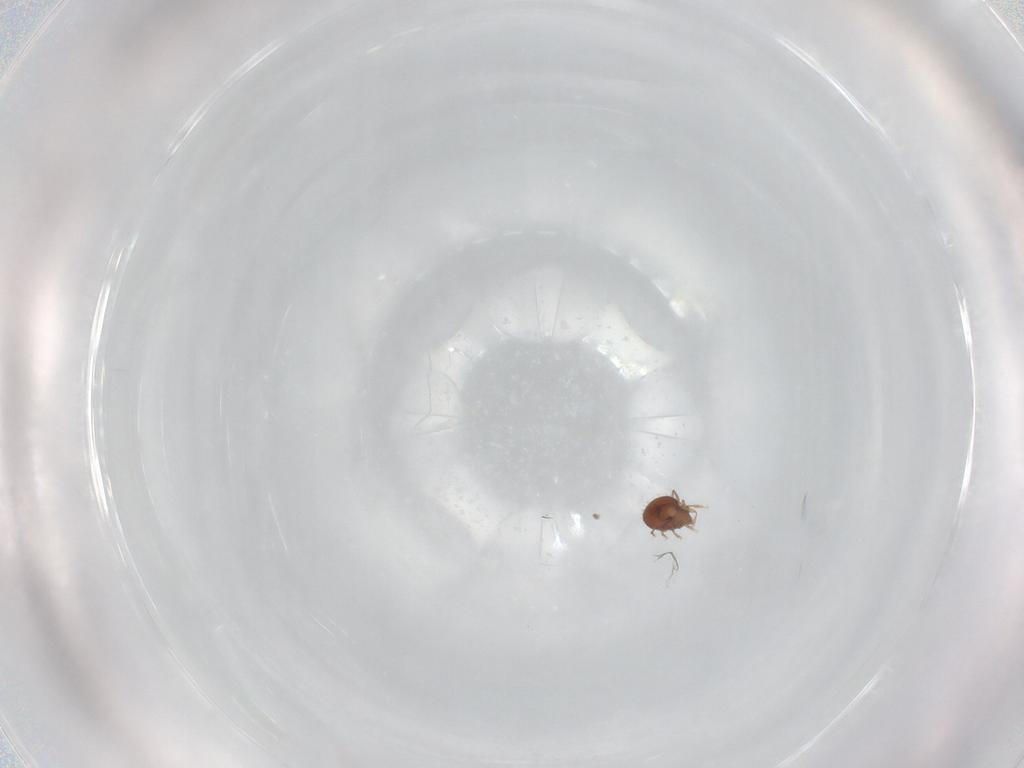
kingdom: Animalia
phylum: Arthropoda
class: Arachnida
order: Sarcoptiformes
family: Oribatulidae
